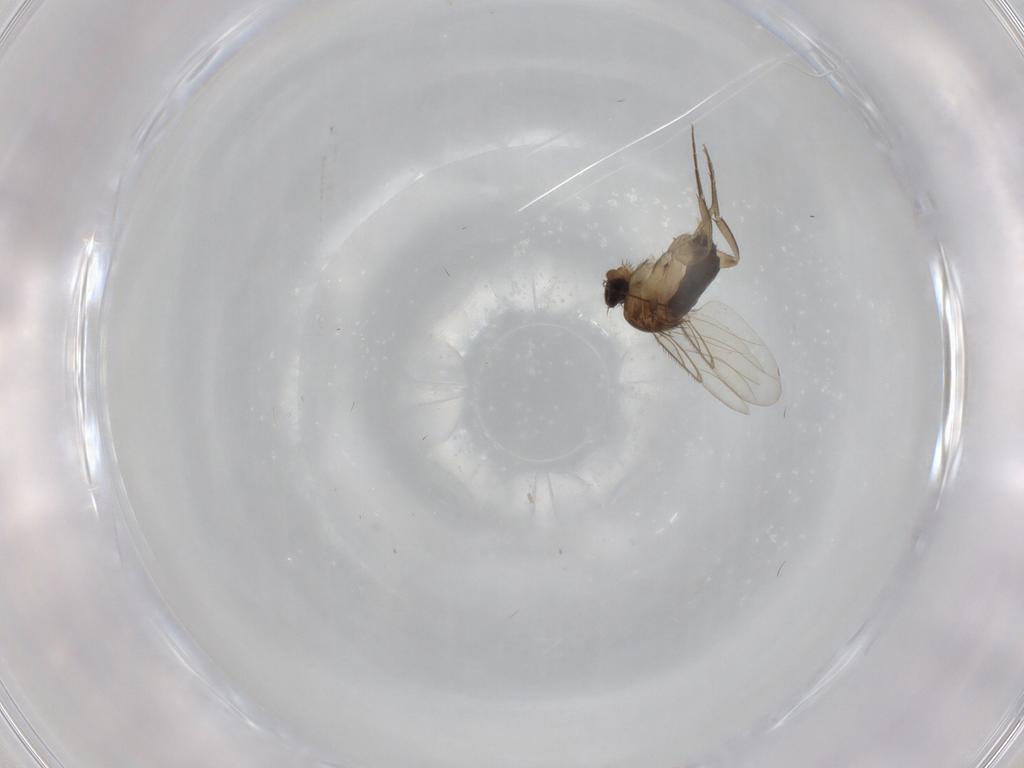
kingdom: Animalia
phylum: Arthropoda
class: Insecta
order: Diptera
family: Phoridae
